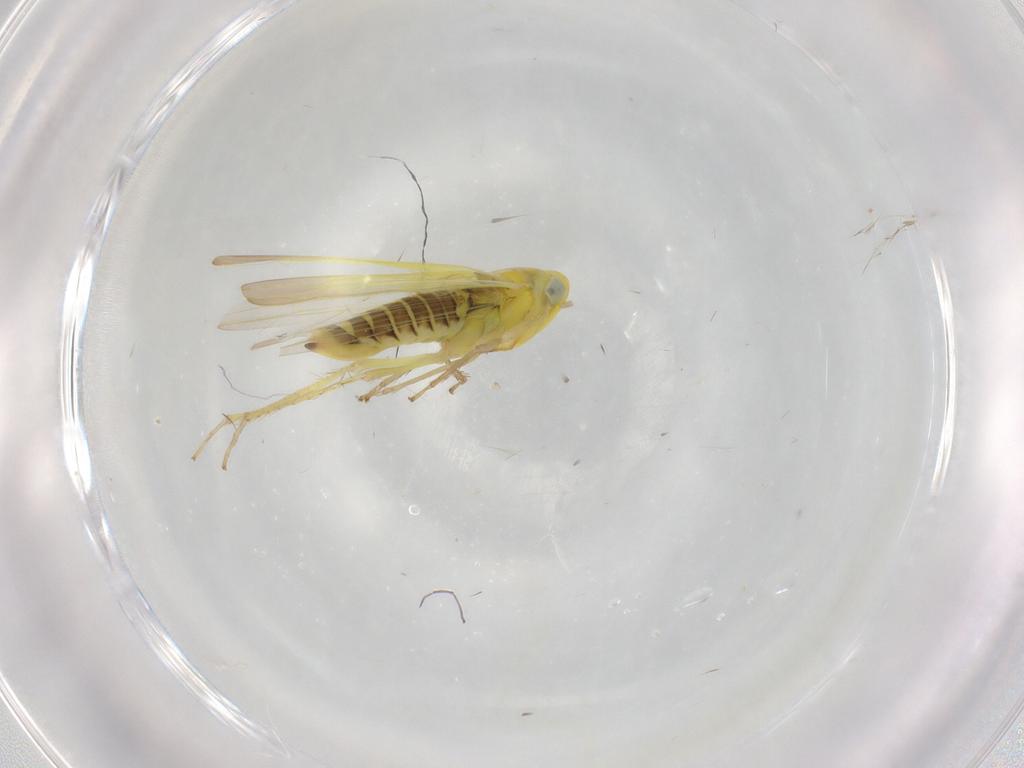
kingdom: Animalia
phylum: Arthropoda
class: Insecta
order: Hemiptera
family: Cicadellidae
